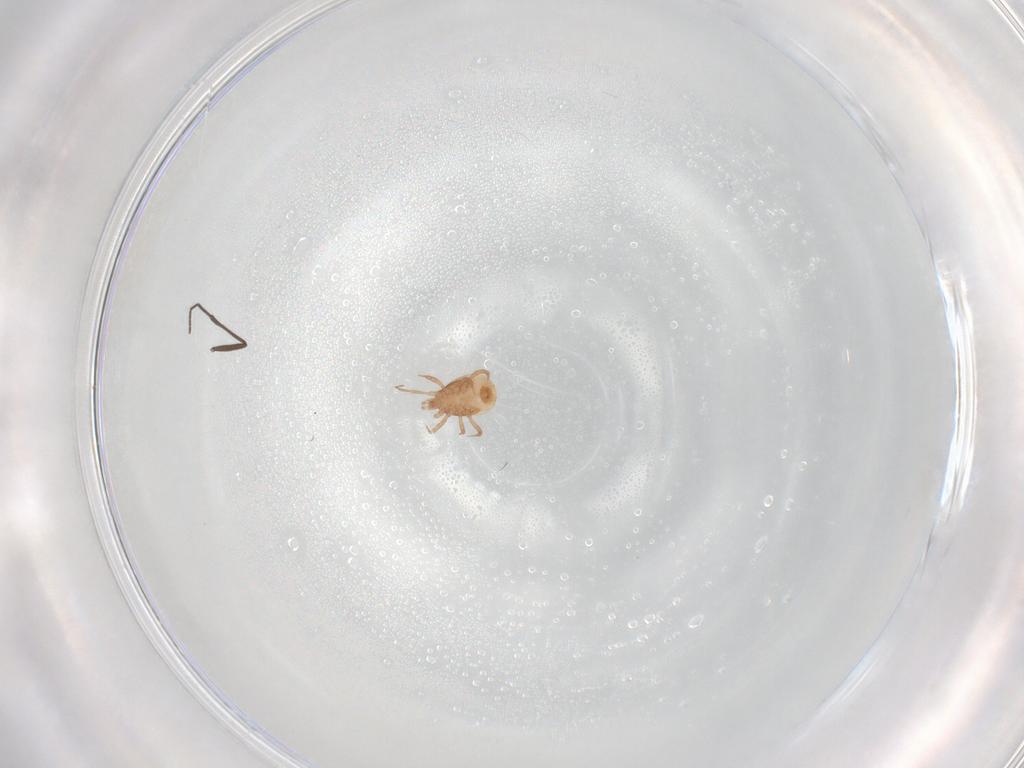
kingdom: Animalia
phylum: Arthropoda
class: Arachnida
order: Mesostigmata
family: Blattisociidae
